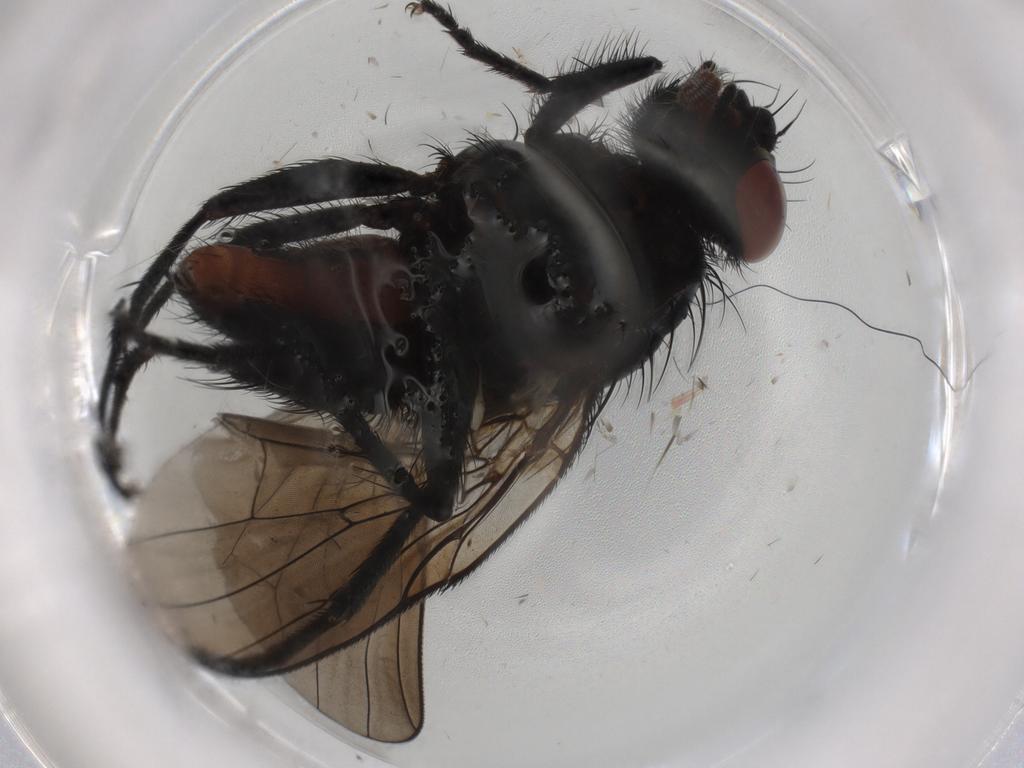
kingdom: Animalia
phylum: Arthropoda
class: Insecta
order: Diptera
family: Anthomyiidae
